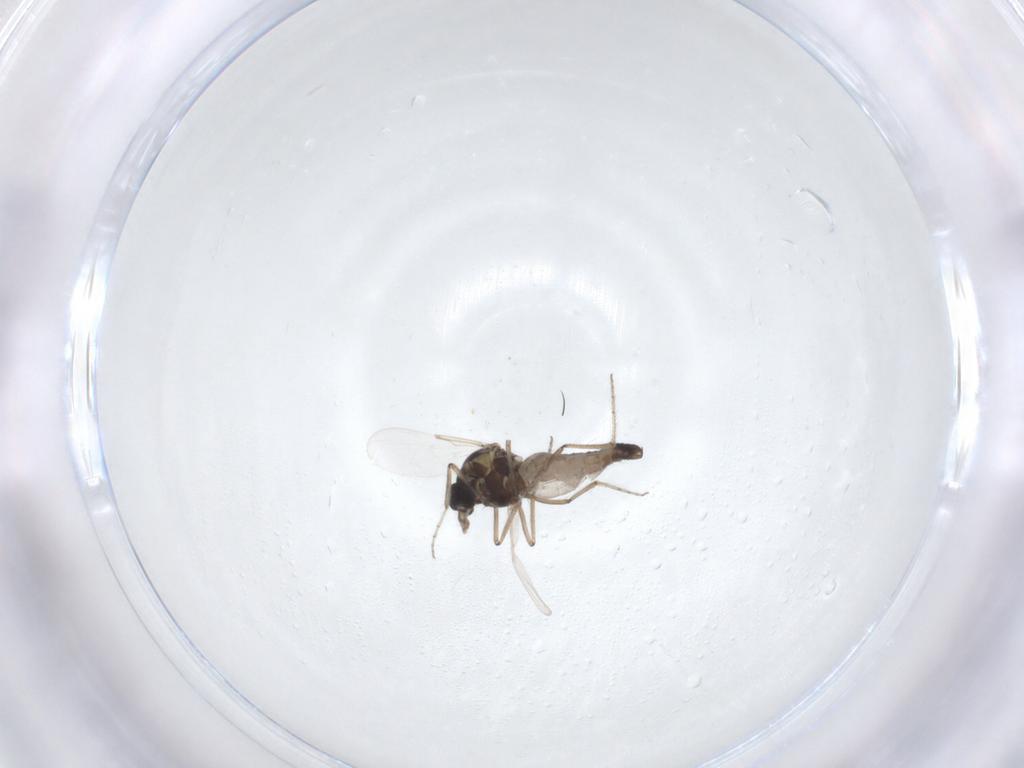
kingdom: Animalia
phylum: Arthropoda
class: Insecta
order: Diptera
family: Ceratopogonidae
